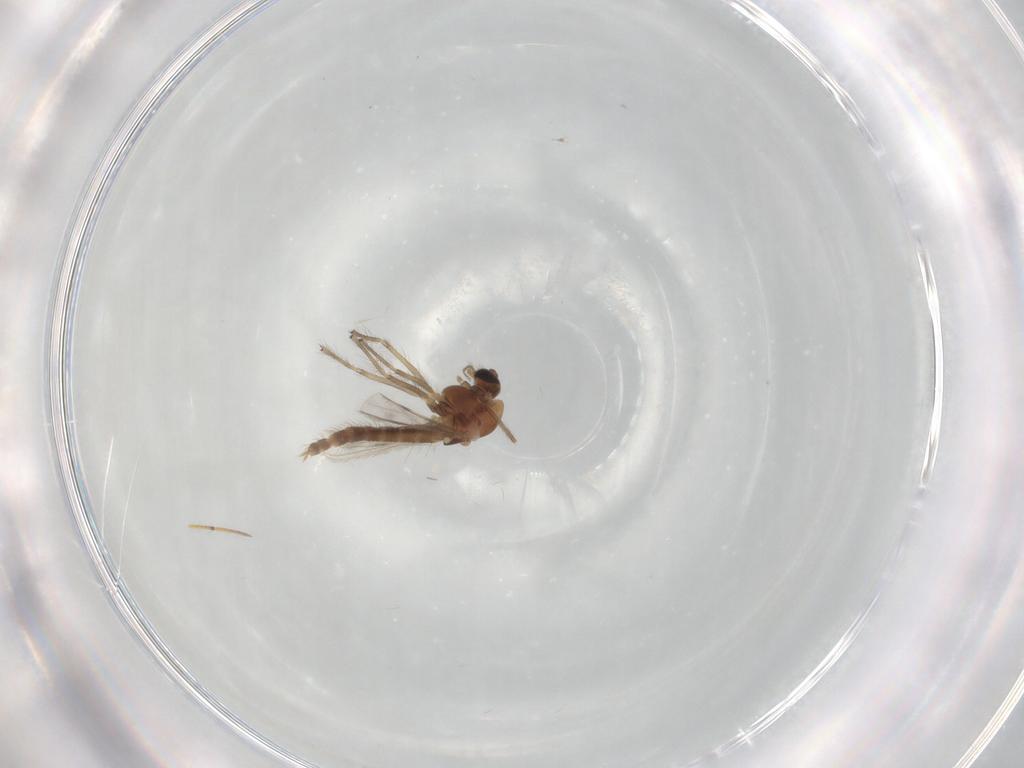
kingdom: Animalia
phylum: Arthropoda
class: Insecta
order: Diptera
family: Chironomidae
